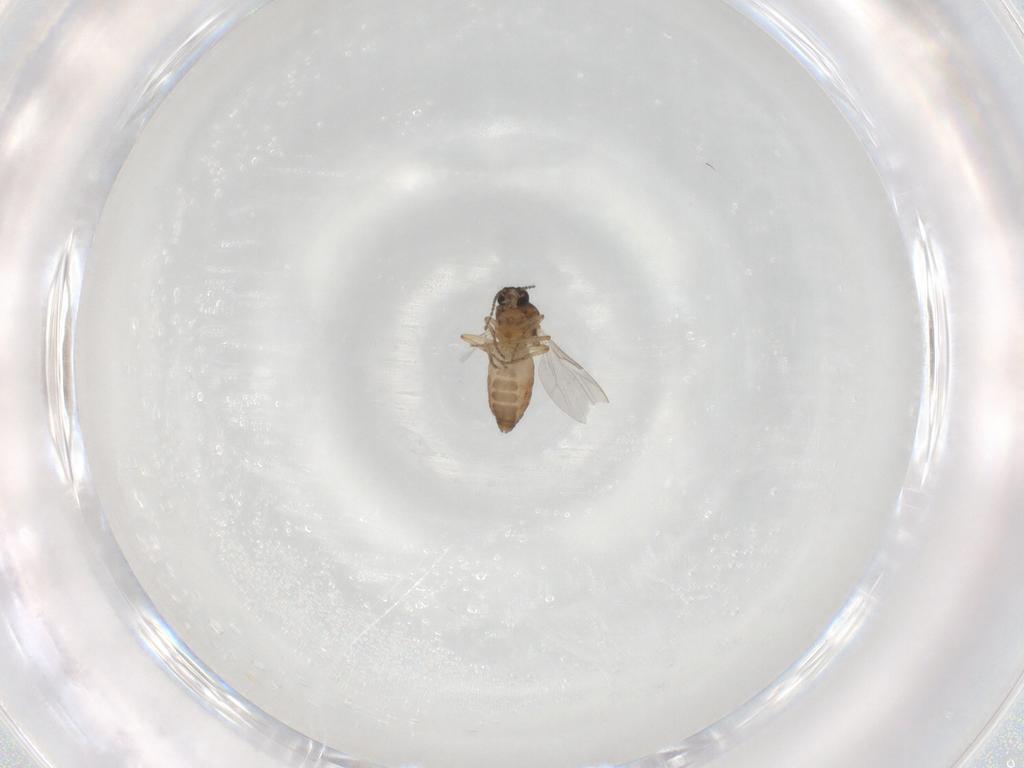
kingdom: Animalia
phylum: Arthropoda
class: Insecta
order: Diptera
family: Ceratopogonidae
